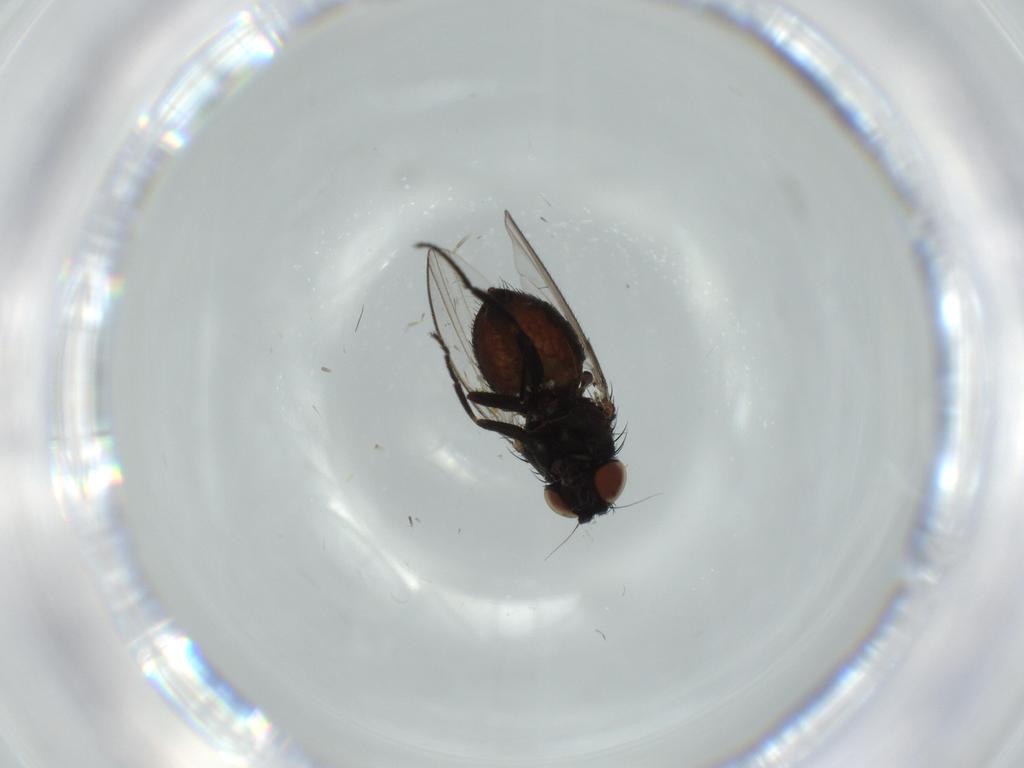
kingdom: Animalia
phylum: Arthropoda
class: Insecta
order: Diptera
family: Milichiidae
